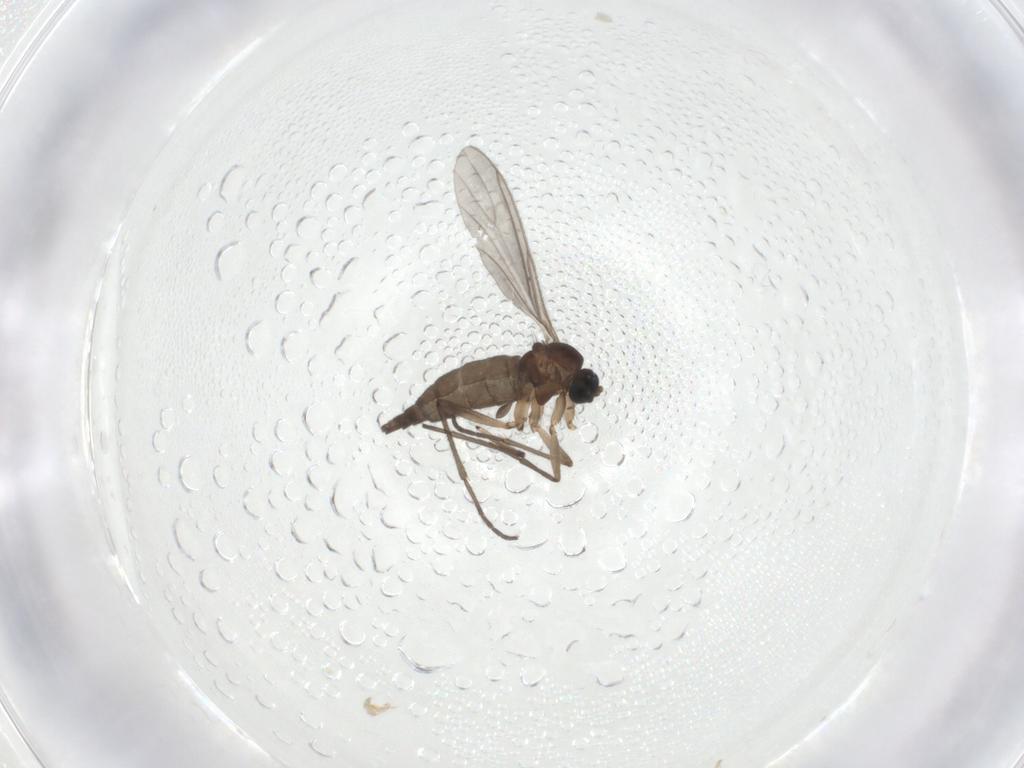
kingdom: Animalia
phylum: Arthropoda
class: Insecta
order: Diptera
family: Sciaridae
